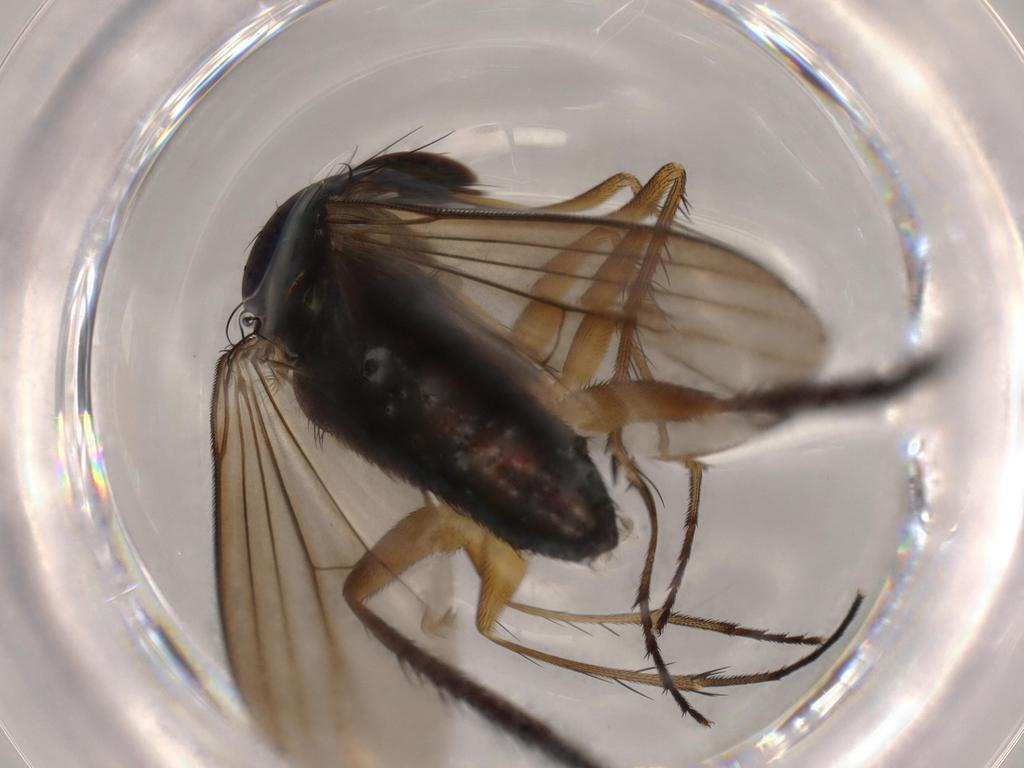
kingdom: Animalia
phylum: Arthropoda
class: Insecta
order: Diptera
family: Dolichopodidae
